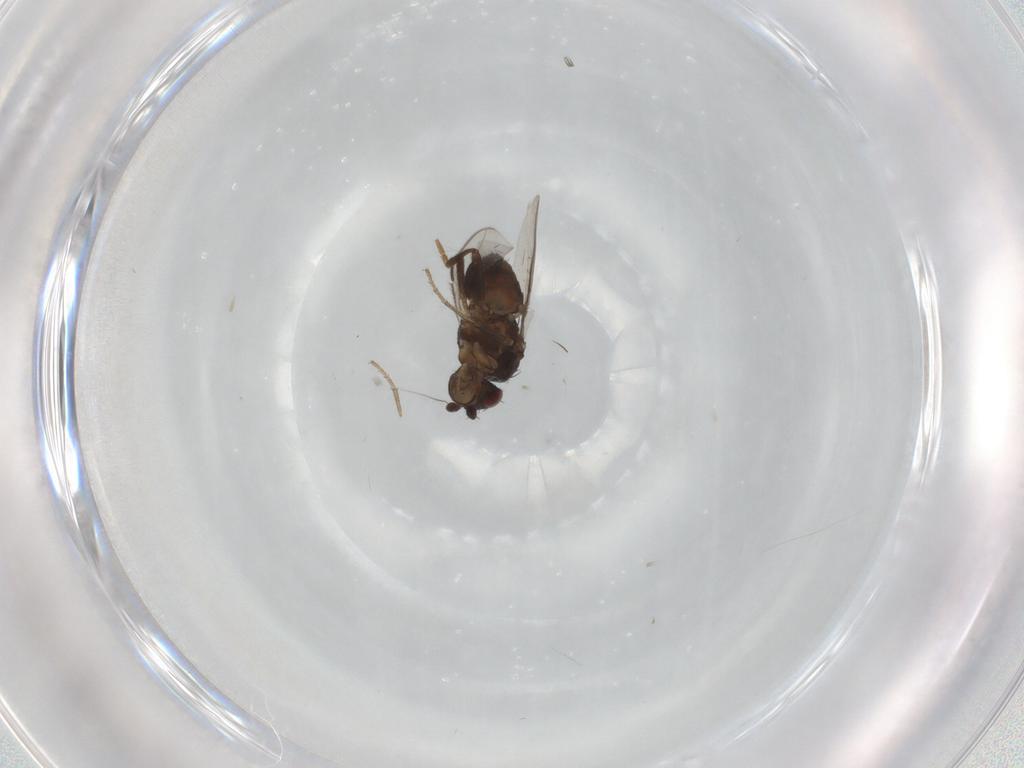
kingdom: Animalia
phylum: Arthropoda
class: Insecta
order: Diptera
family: Sphaeroceridae
